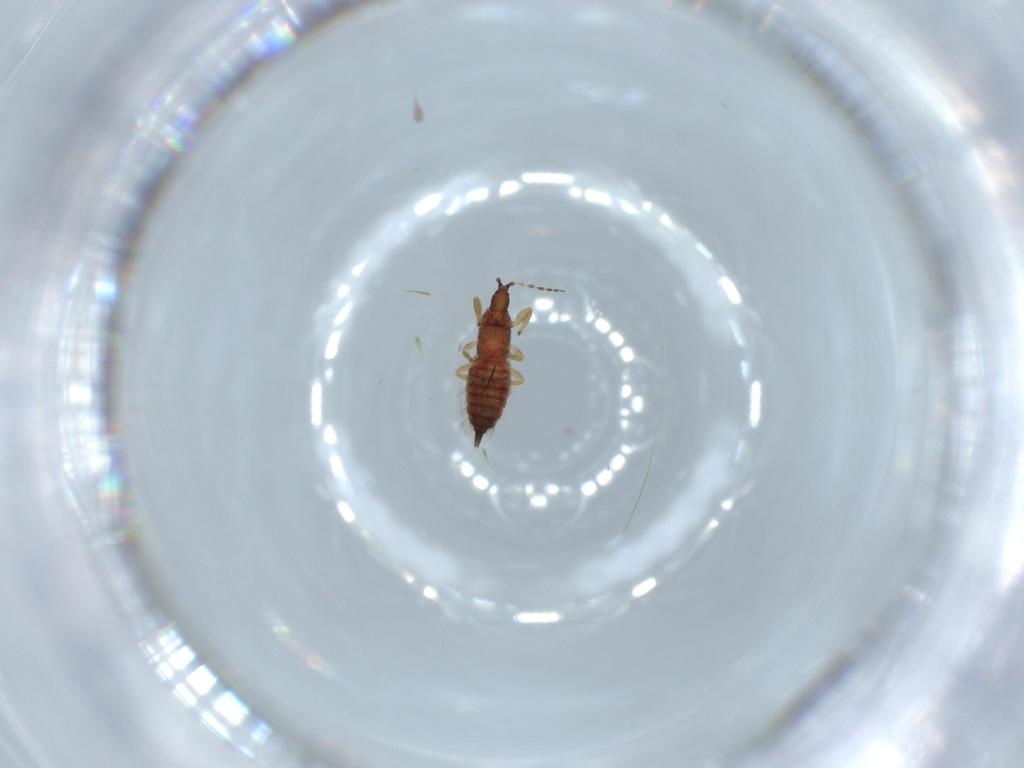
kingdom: Animalia
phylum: Arthropoda
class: Insecta
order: Thysanoptera
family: Phlaeothripidae
